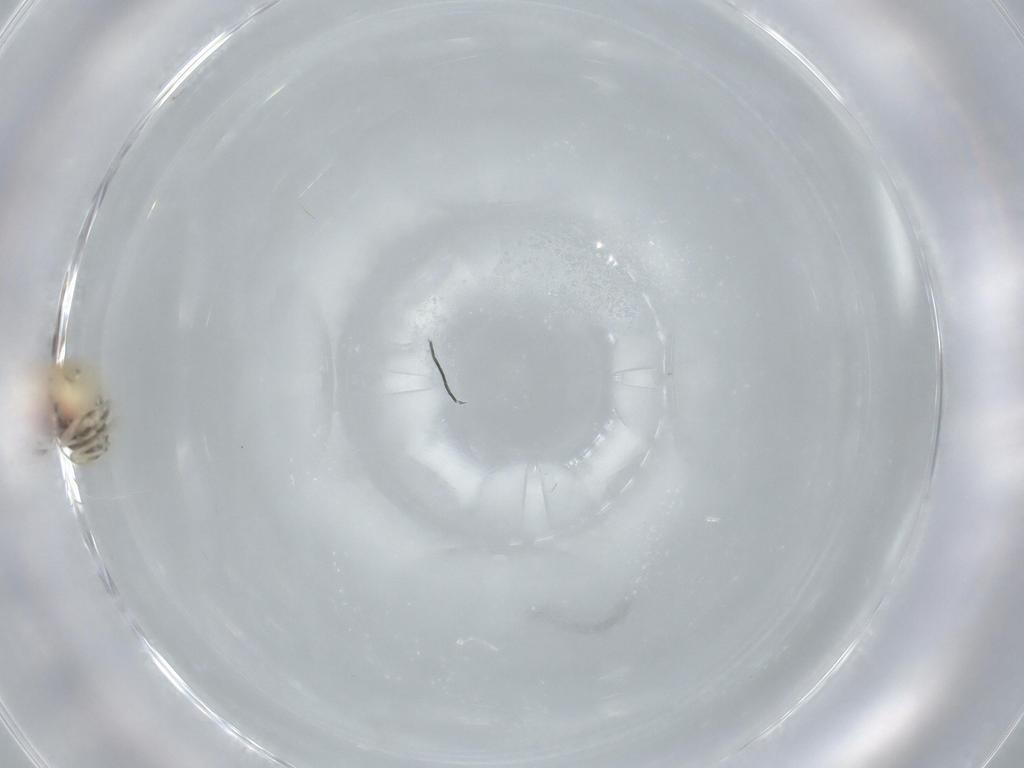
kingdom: Animalia
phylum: Arthropoda
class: Insecta
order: Hemiptera
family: Aleyrodidae
